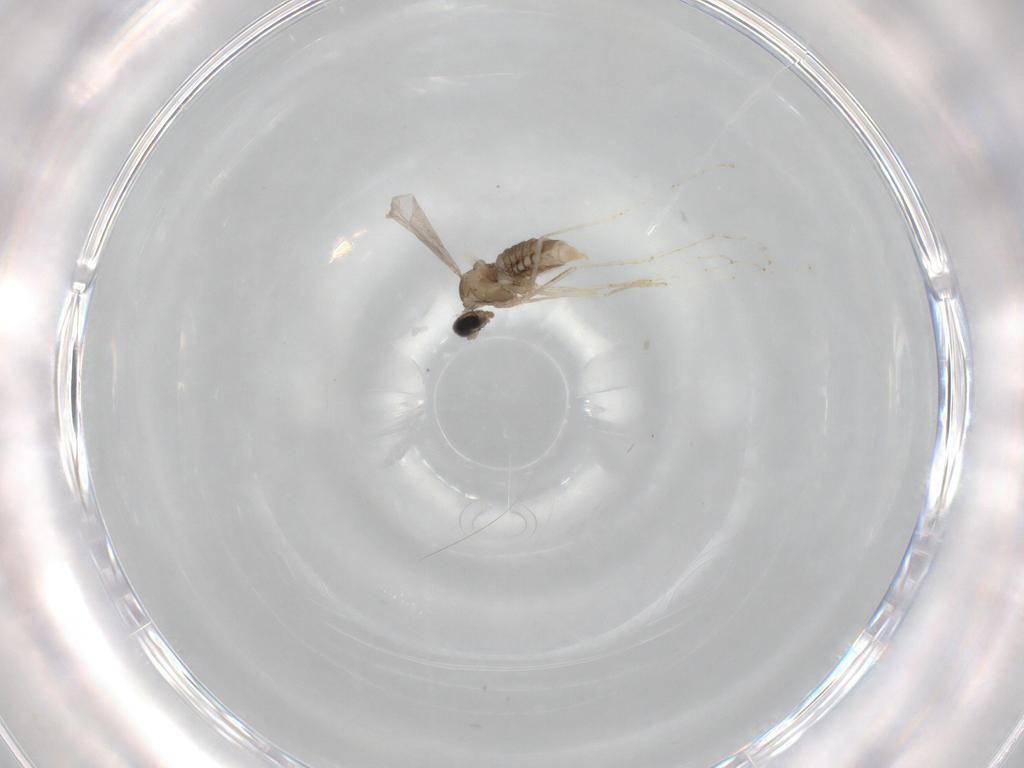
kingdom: Animalia
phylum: Arthropoda
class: Insecta
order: Diptera
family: Cecidomyiidae
